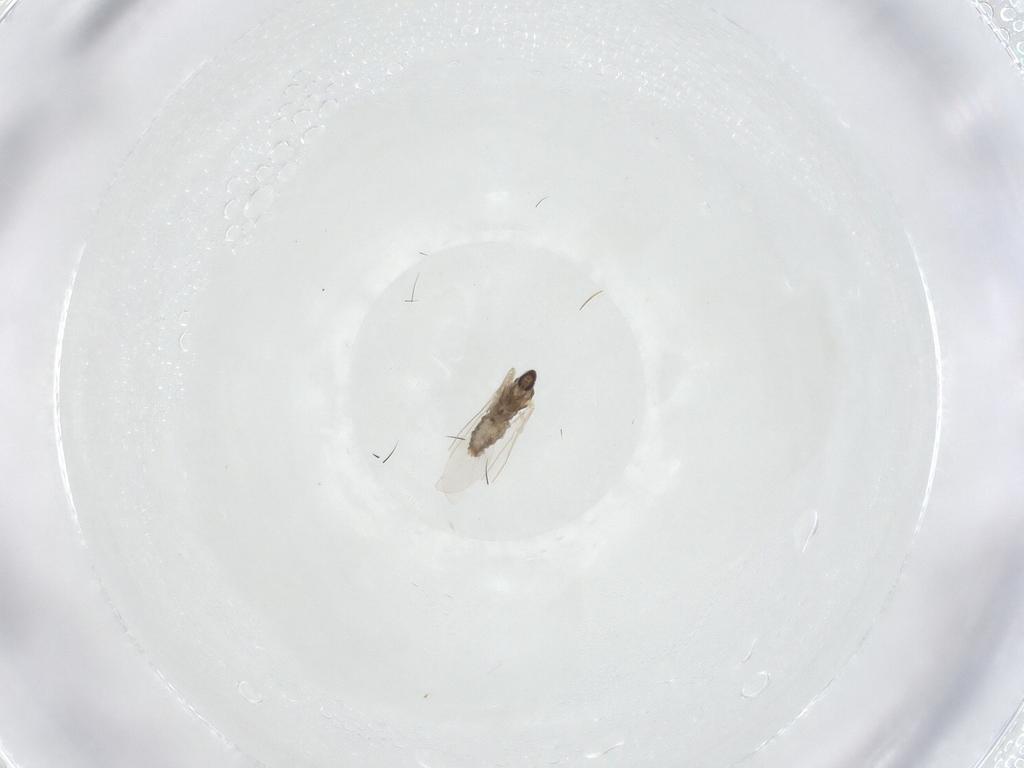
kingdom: Animalia
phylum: Arthropoda
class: Insecta
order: Diptera
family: Cecidomyiidae
